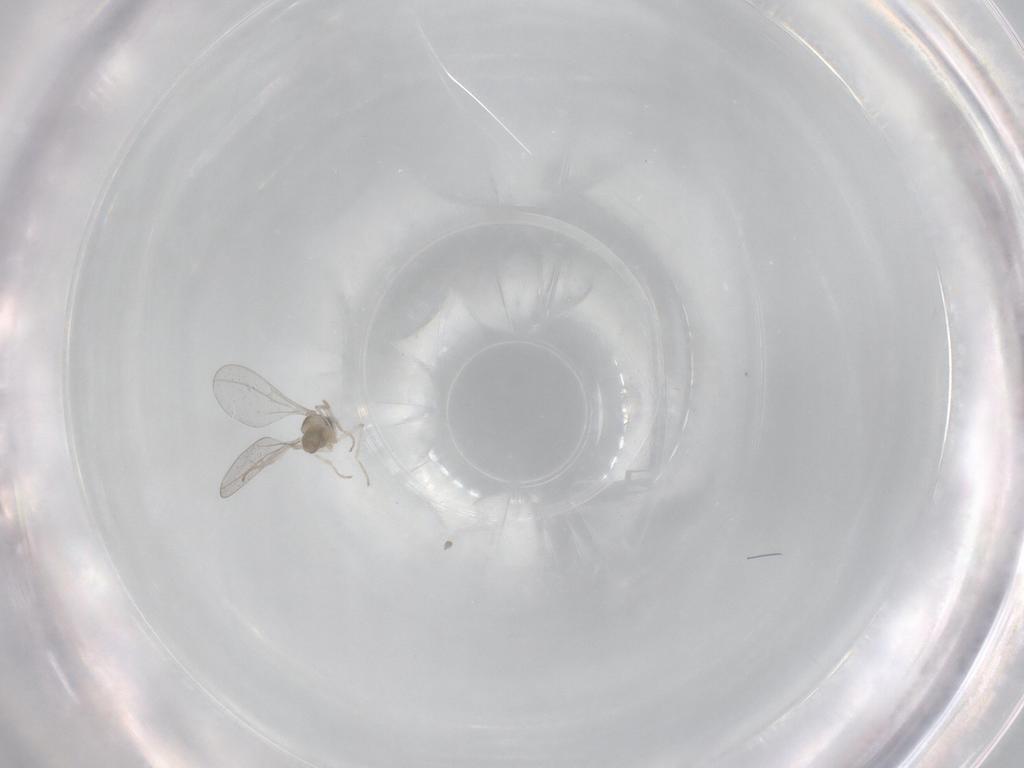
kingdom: Animalia
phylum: Arthropoda
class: Insecta
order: Diptera
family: Cecidomyiidae
